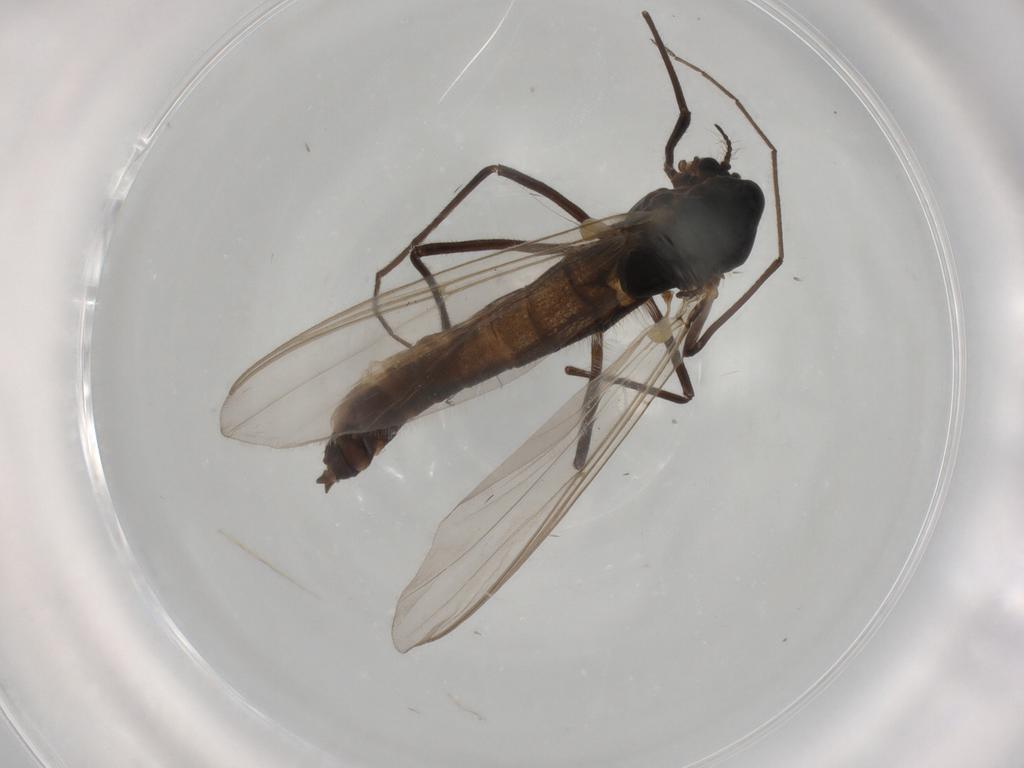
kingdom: Animalia
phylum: Arthropoda
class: Insecta
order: Diptera
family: Chironomidae
